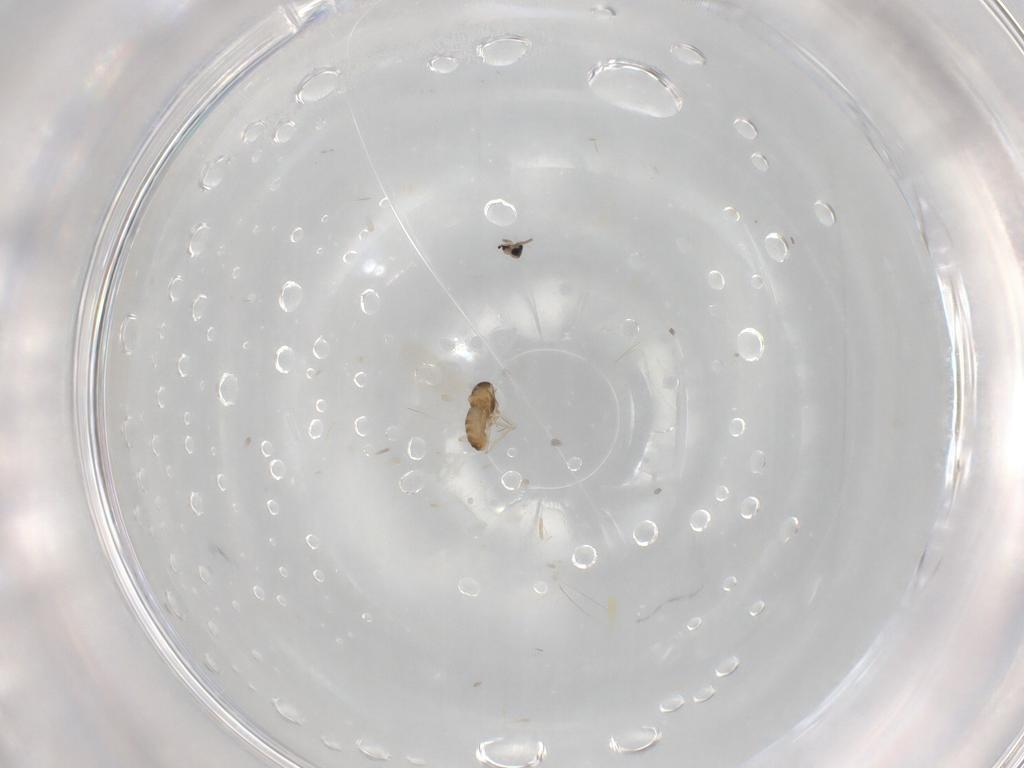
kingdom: Animalia
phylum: Arthropoda
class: Insecta
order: Diptera
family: Cecidomyiidae
